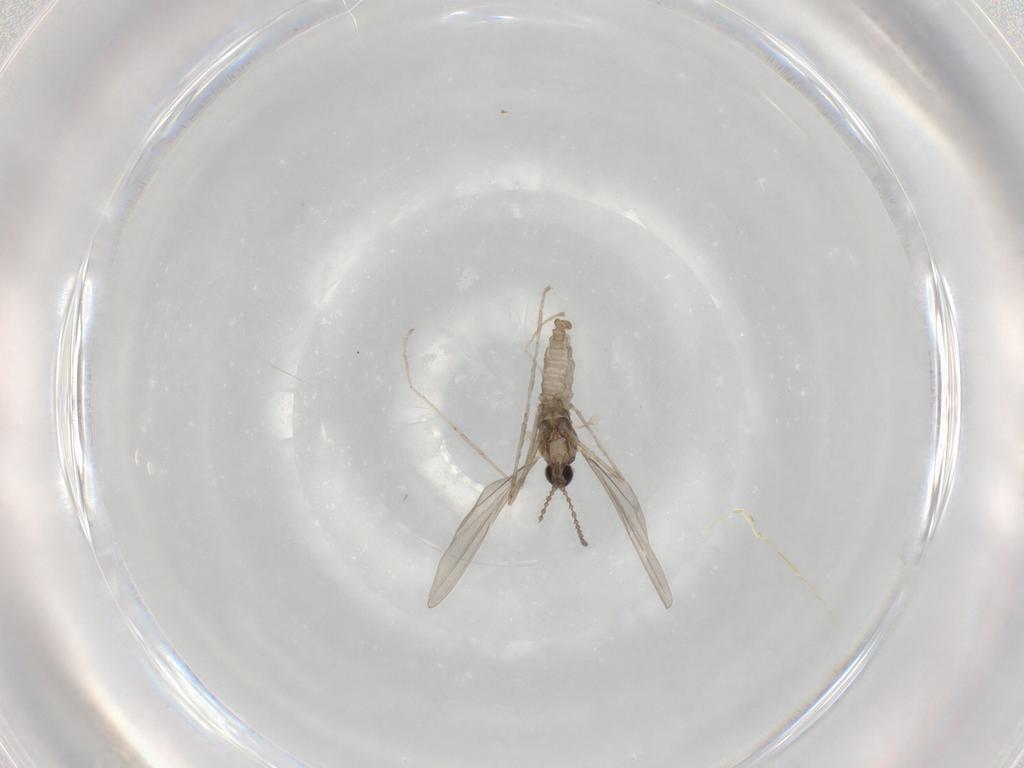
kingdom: Animalia
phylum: Arthropoda
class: Insecta
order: Diptera
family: Cecidomyiidae
